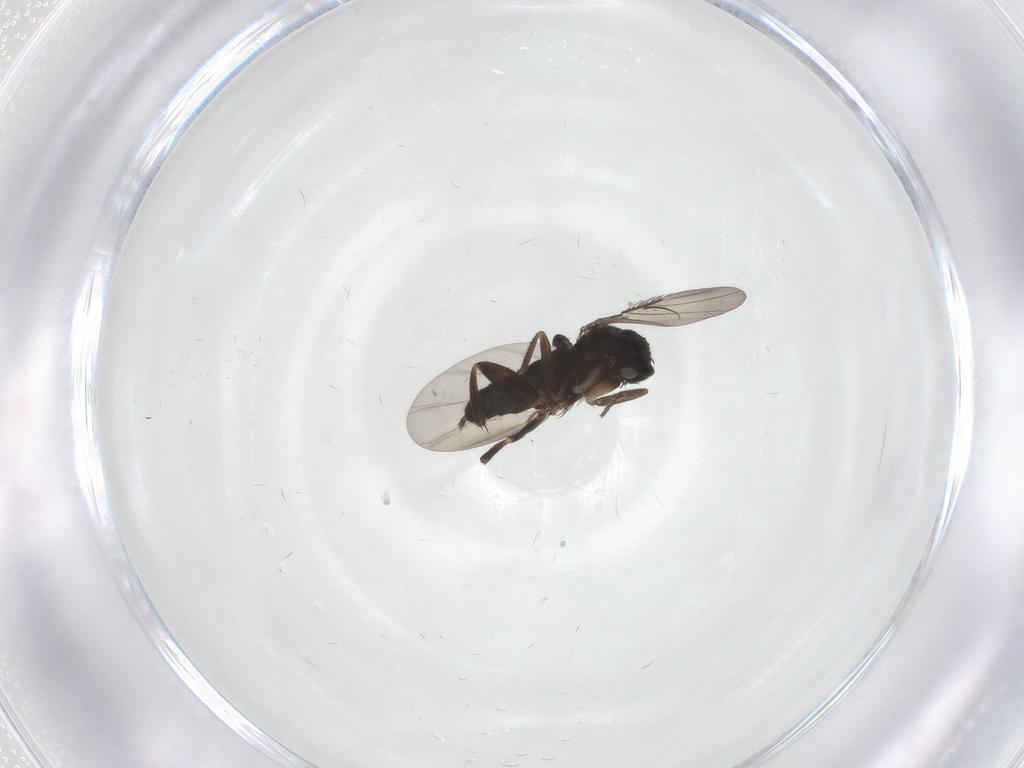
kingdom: Animalia
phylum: Arthropoda
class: Insecta
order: Diptera
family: Phoridae
